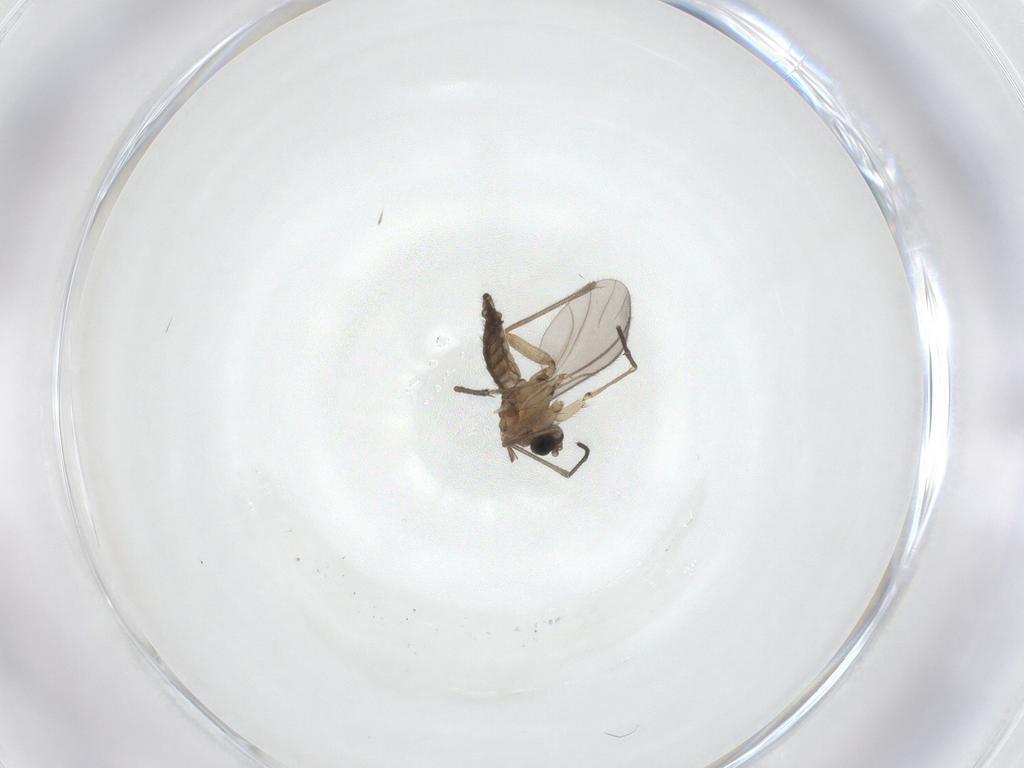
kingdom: Animalia
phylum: Arthropoda
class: Insecta
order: Diptera
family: Sciaridae
